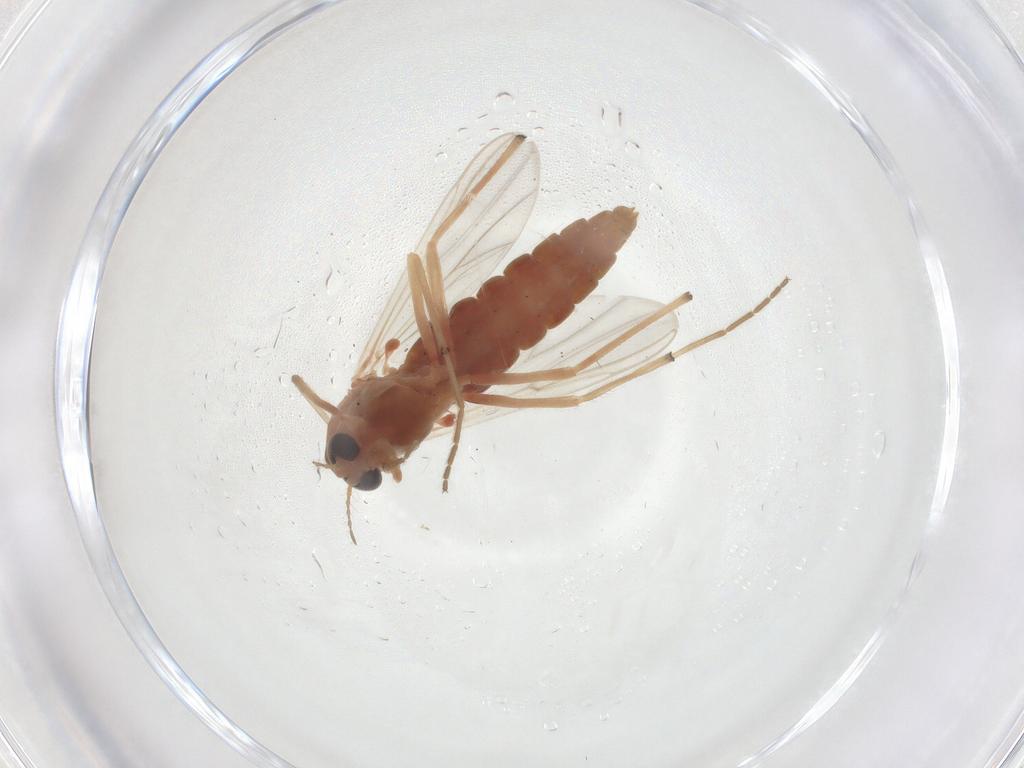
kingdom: Animalia
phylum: Arthropoda
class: Insecta
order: Diptera
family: Chironomidae
